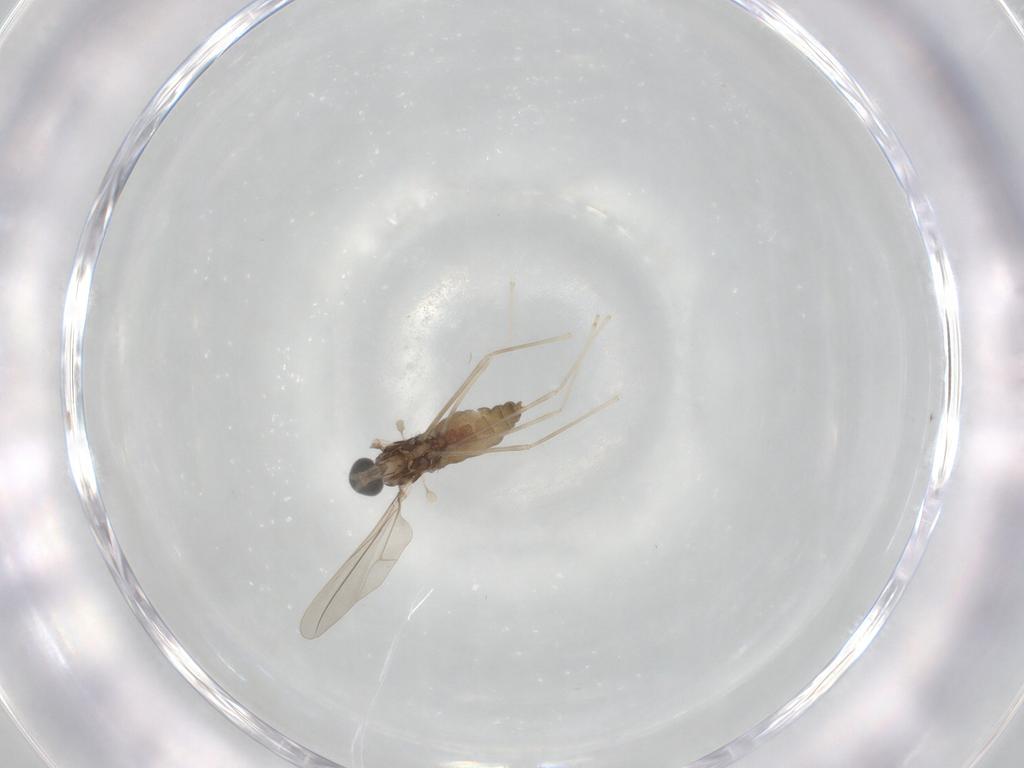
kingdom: Animalia
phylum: Arthropoda
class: Insecta
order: Diptera
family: Cecidomyiidae
